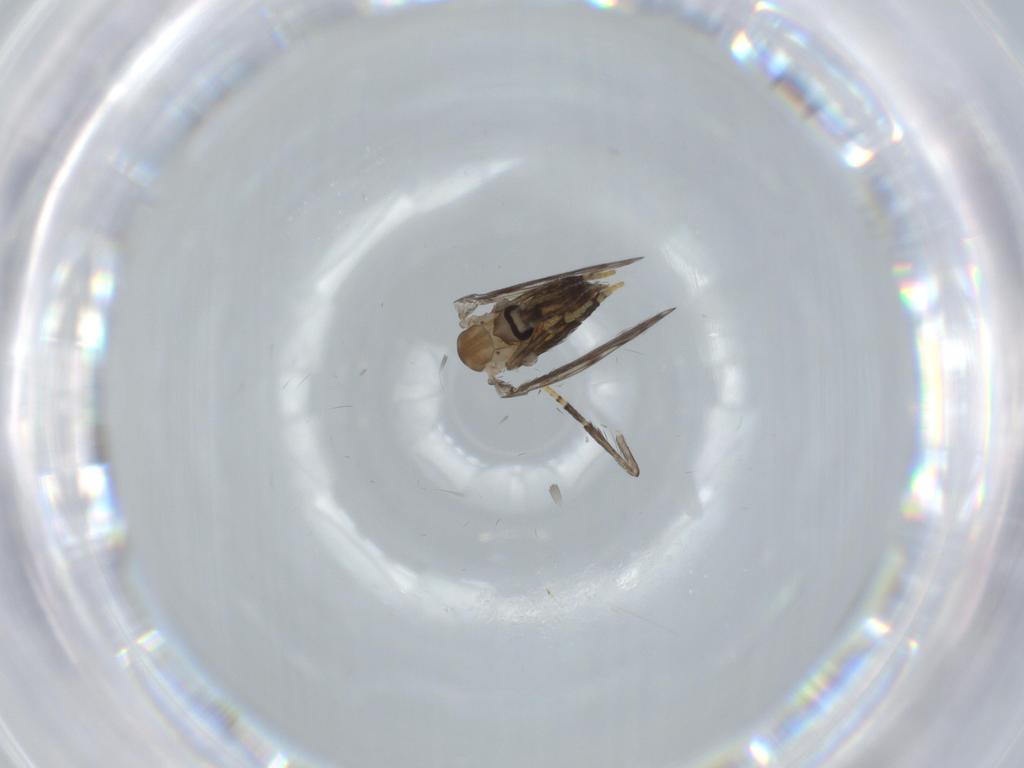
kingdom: Animalia
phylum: Arthropoda
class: Insecta
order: Diptera
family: Psychodidae
